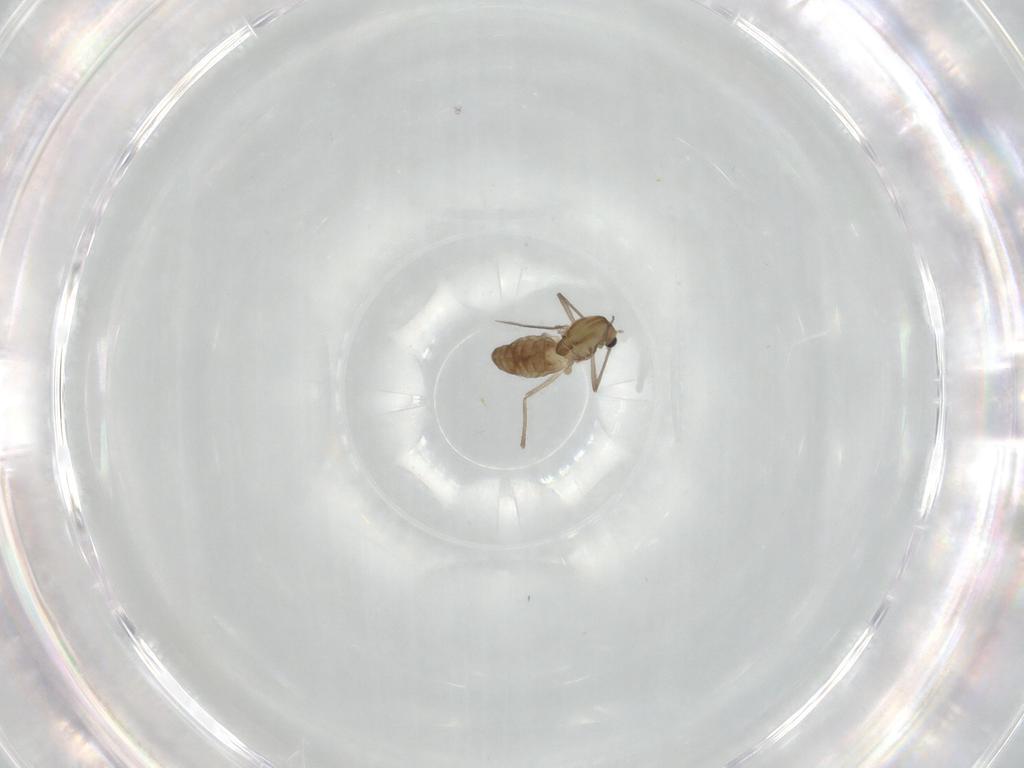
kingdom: Animalia
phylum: Arthropoda
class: Insecta
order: Diptera
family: Chironomidae
